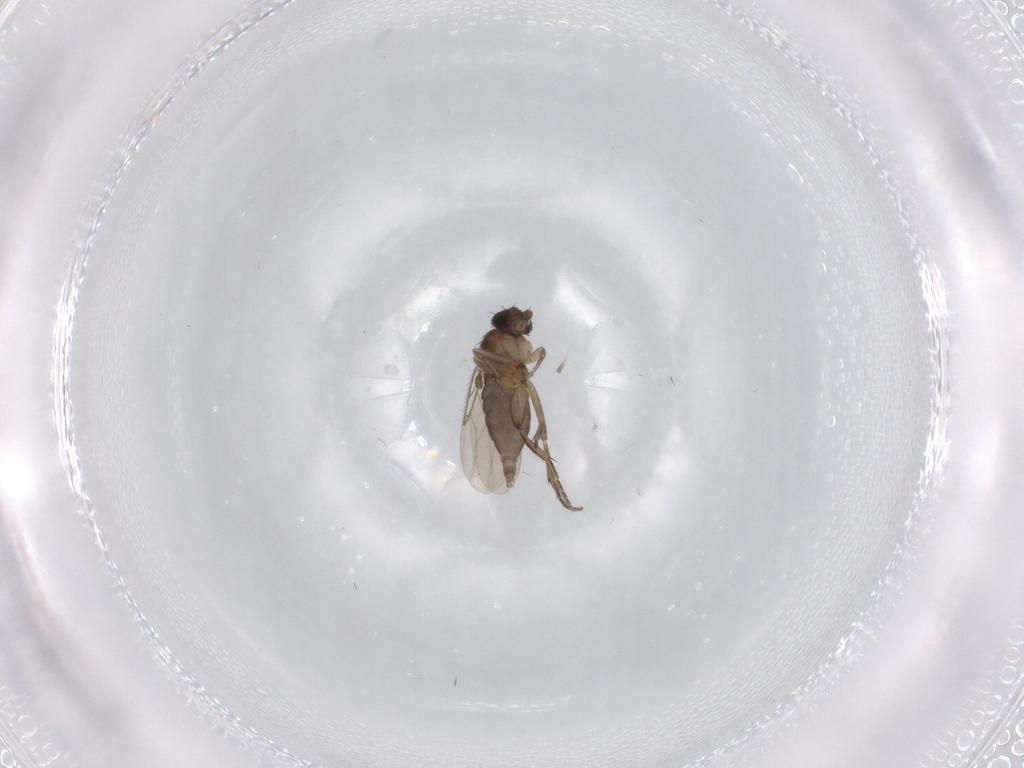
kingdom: Animalia
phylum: Arthropoda
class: Insecta
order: Diptera
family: Phoridae
